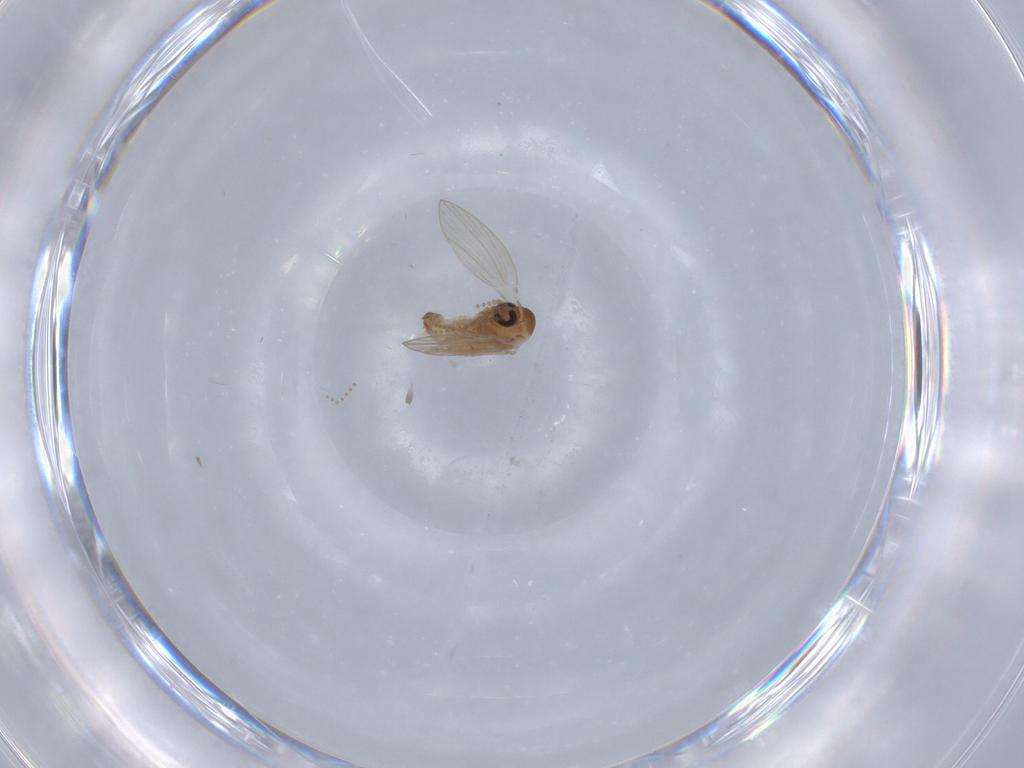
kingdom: Animalia
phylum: Arthropoda
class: Insecta
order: Diptera
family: Psychodidae
